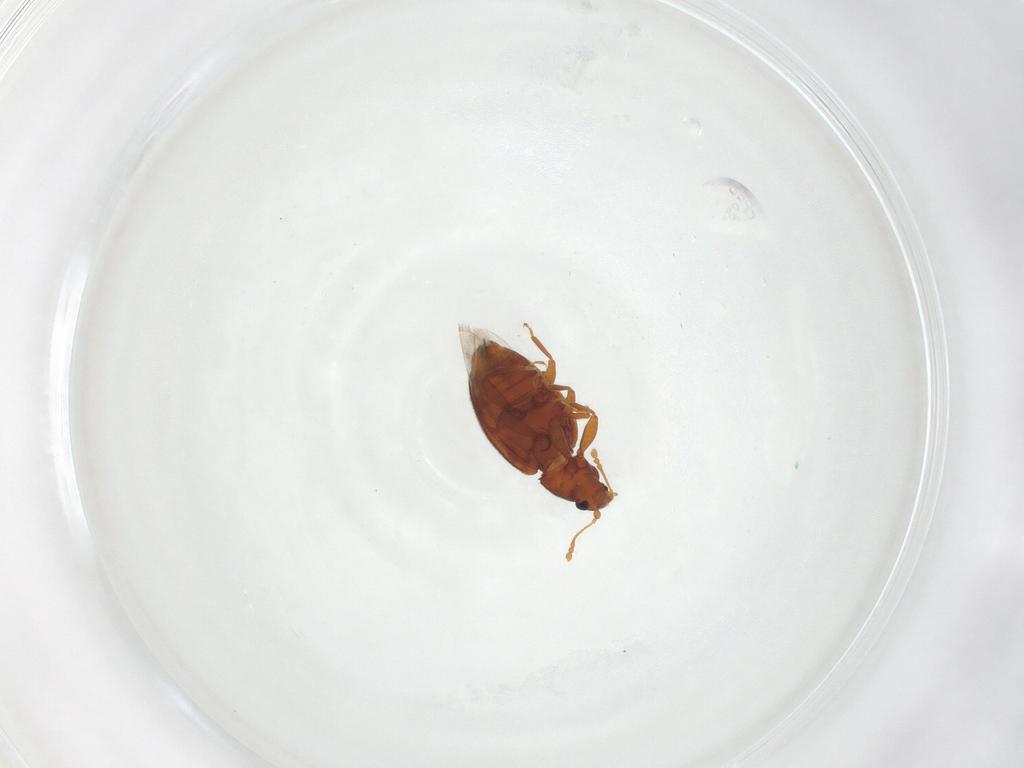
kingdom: Animalia
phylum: Arthropoda
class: Insecta
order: Coleoptera
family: Latridiidae
